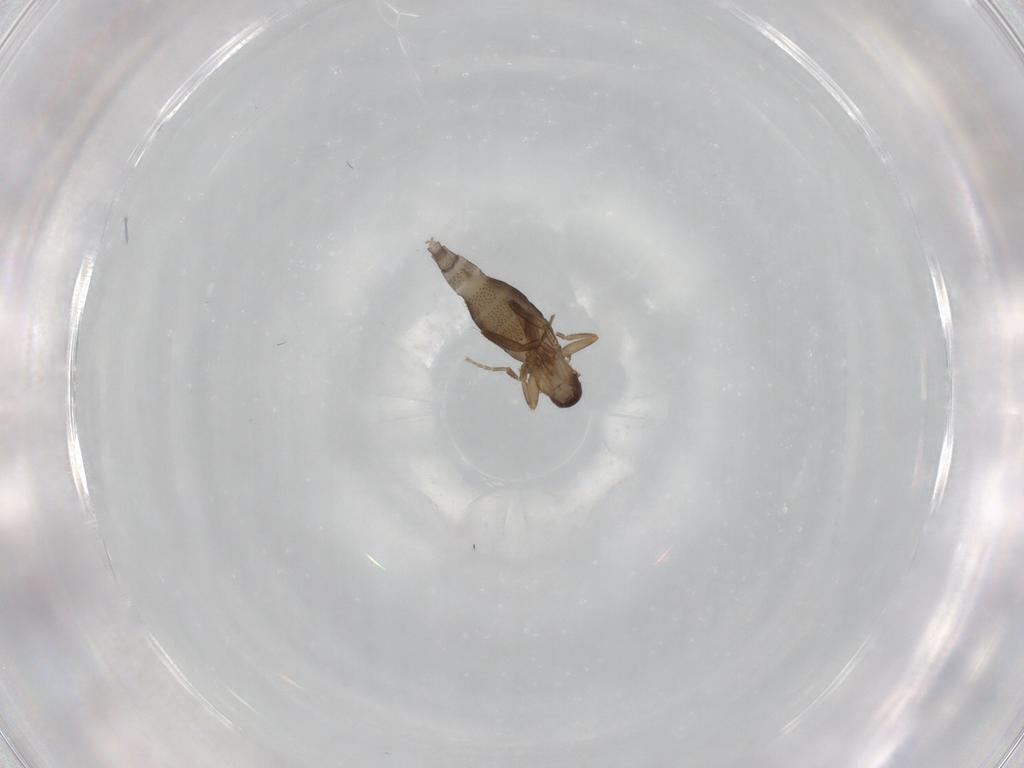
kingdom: Animalia
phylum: Arthropoda
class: Insecta
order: Diptera
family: Phoridae
